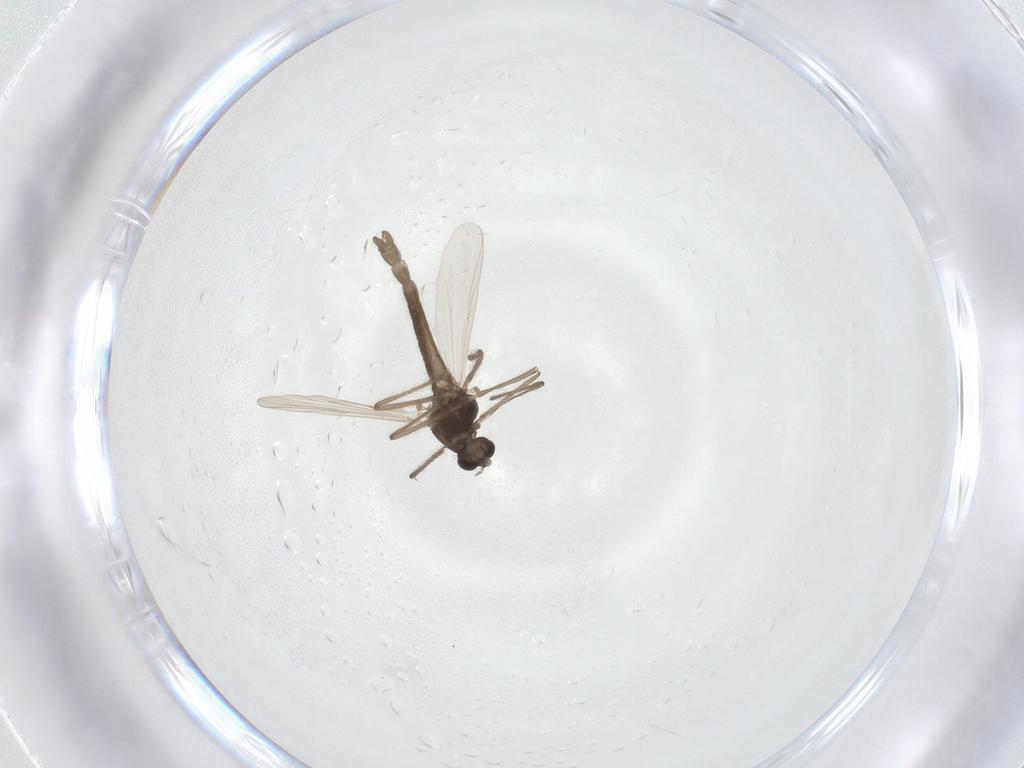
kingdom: Animalia
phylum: Arthropoda
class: Insecta
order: Diptera
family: Chironomidae
